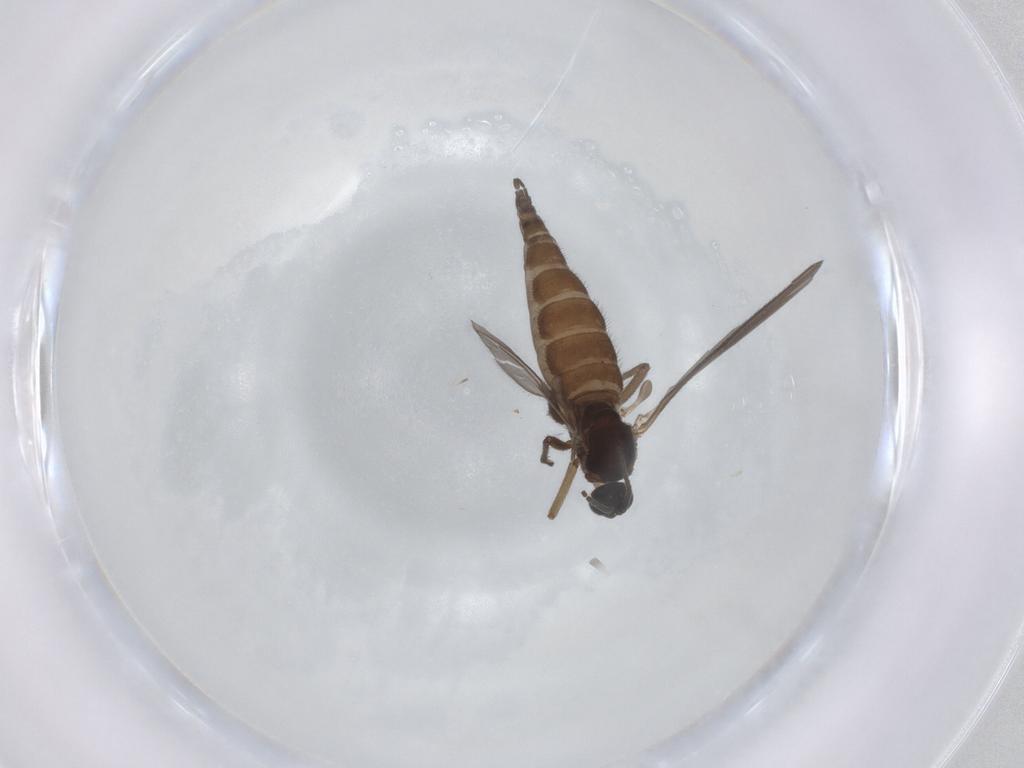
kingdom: Animalia
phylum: Arthropoda
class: Insecta
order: Diptera
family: Sciaridae
